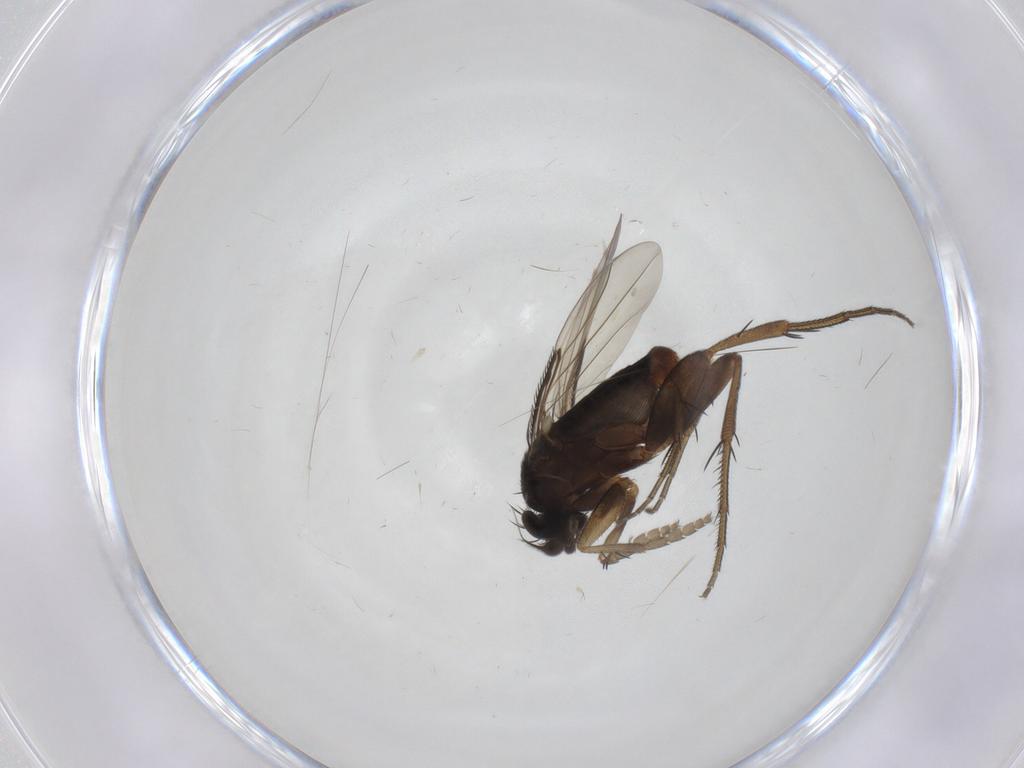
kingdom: Animalia
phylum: Arthropoda
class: Insecta
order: Diptera
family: Phoridae
